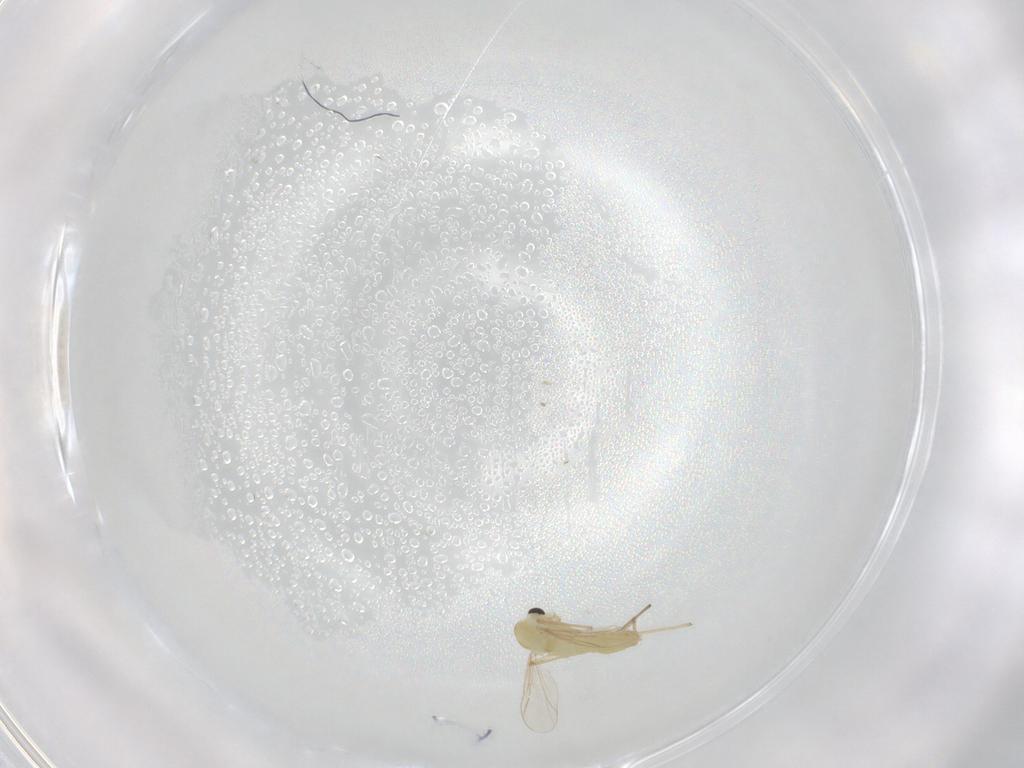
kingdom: Animalia
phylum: Arthropoda
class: Insecta
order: Diptera
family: Chironomidae
